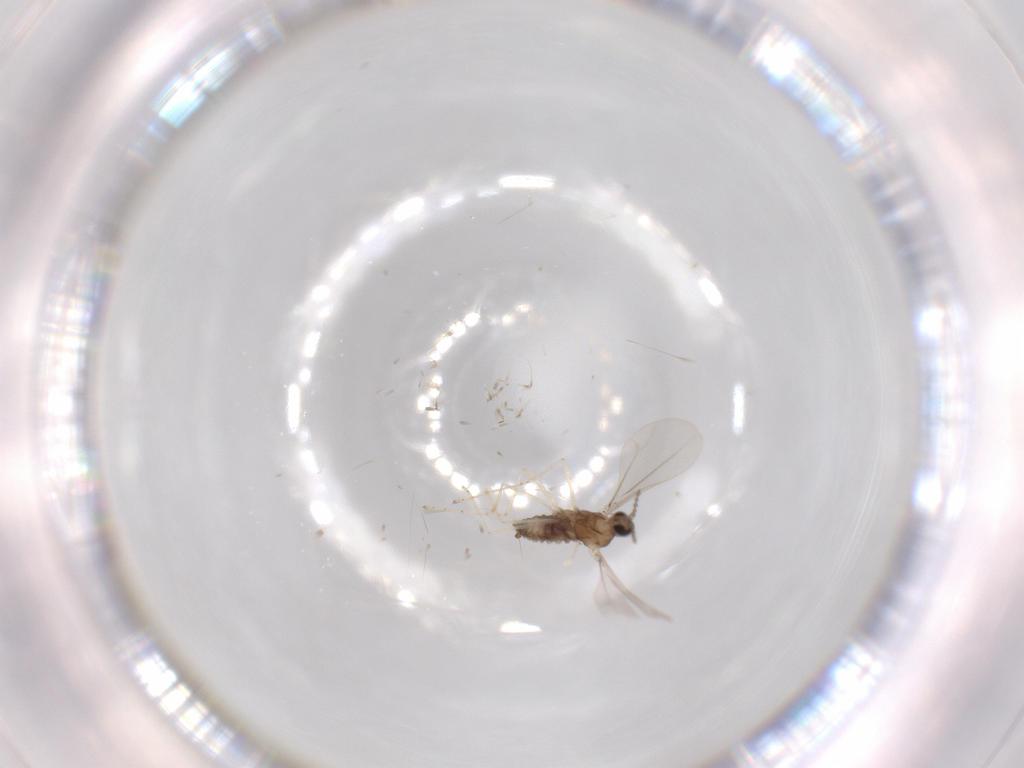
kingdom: Animalia
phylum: Arthropoda
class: Insecta
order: Diptera
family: Chironomidae
